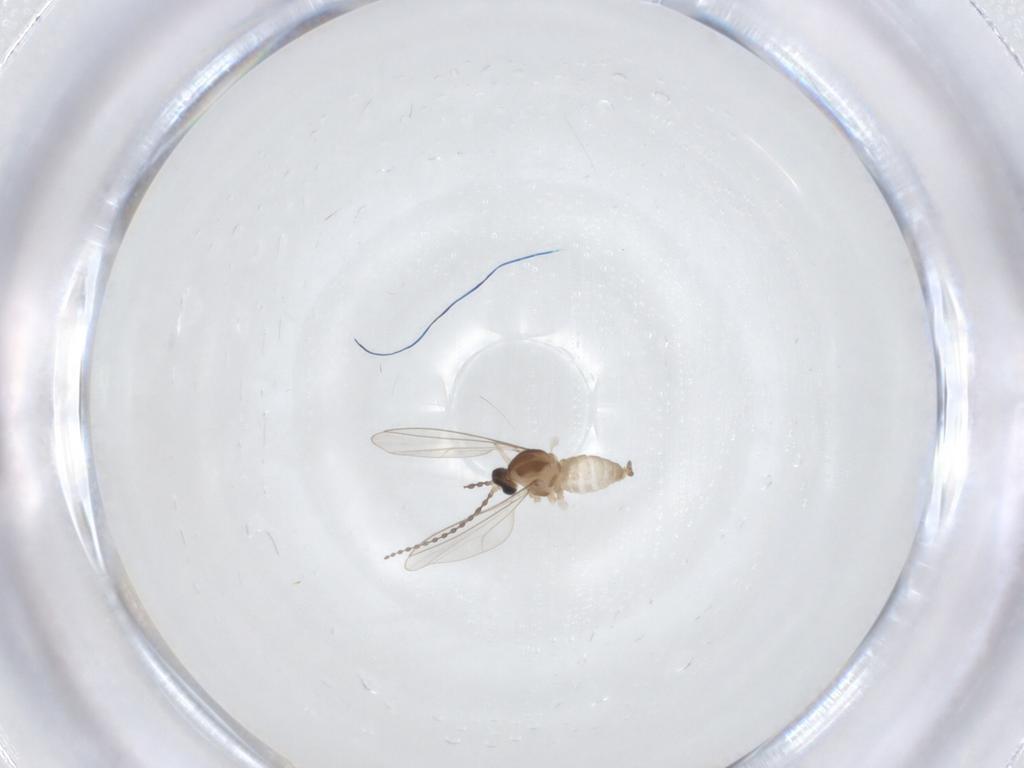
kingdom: Animalia
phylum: Arthropoda
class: Insecta
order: Diptera
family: Cecidomyiidae
